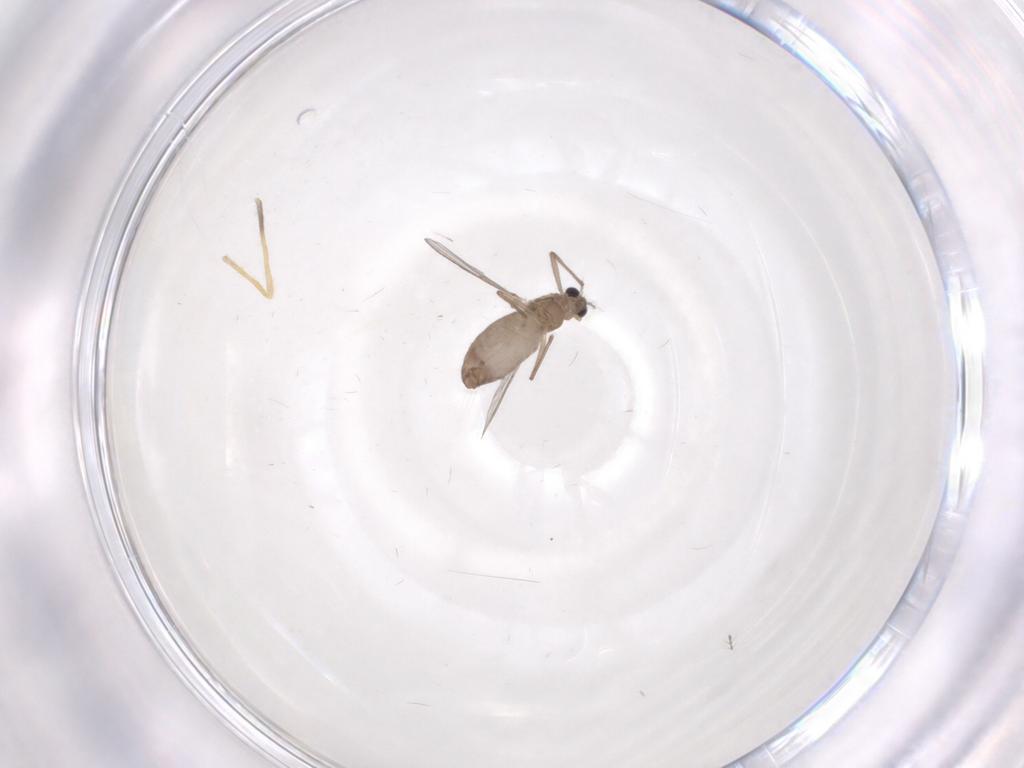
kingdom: Animalia
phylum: Arthropoda
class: Insecta
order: Diptera
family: Chironomidae
